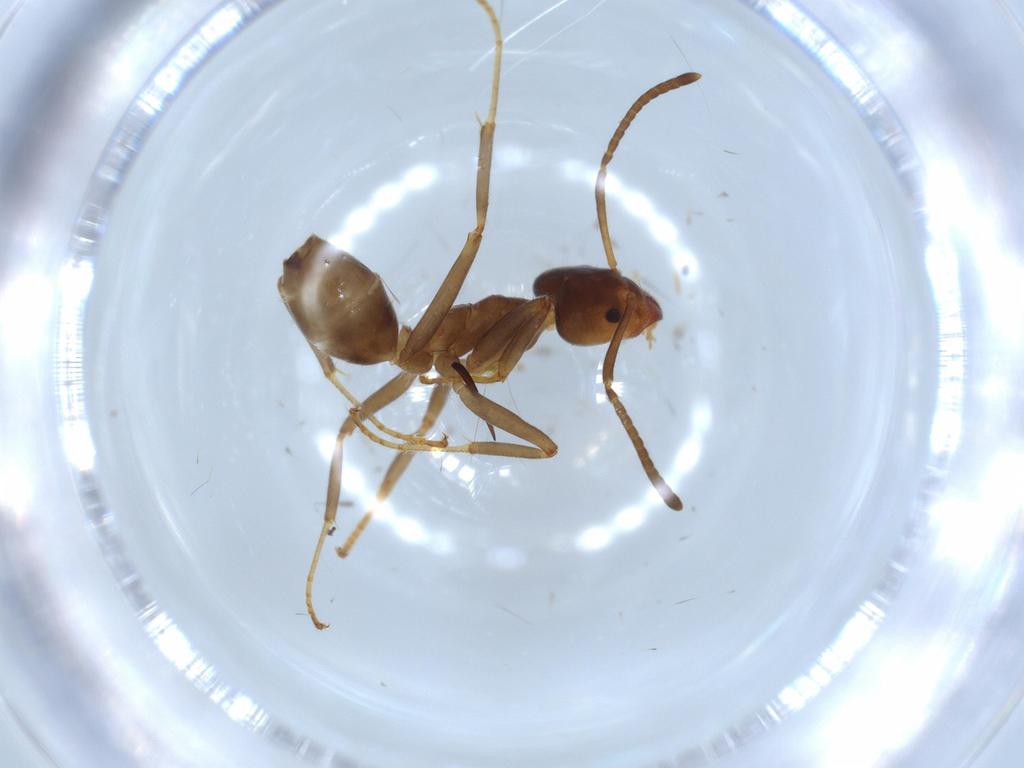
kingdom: Animalia
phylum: Arthropoda
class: Insecta
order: Hymenoptera
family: Formicidae
